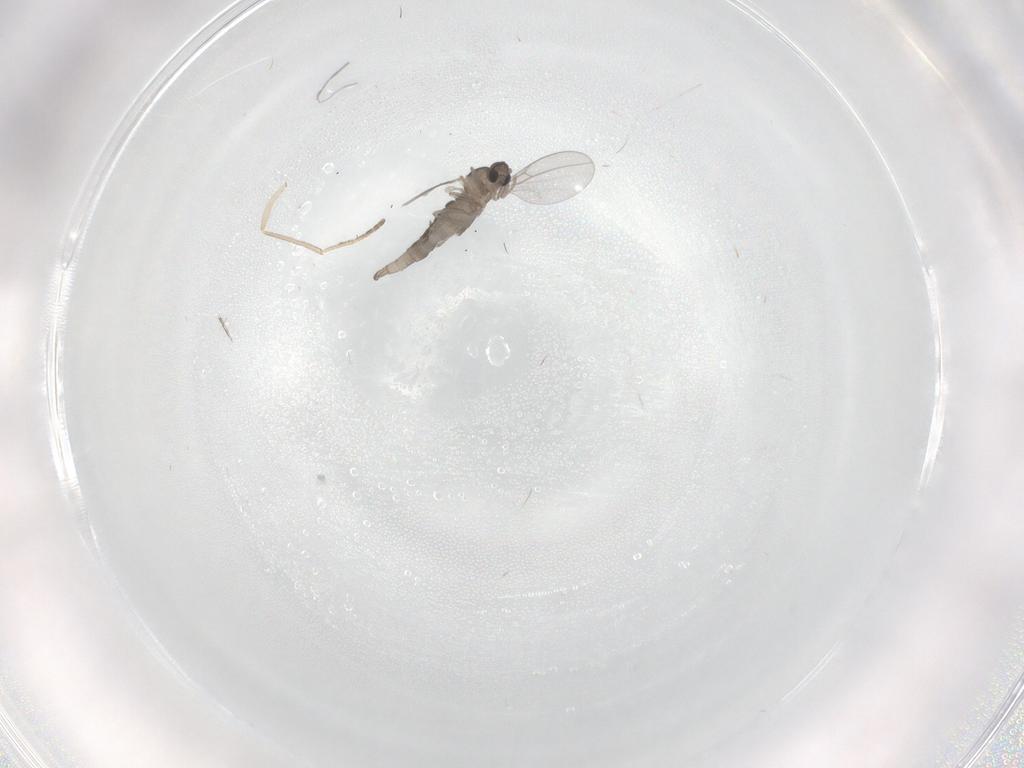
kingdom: Animalia
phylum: Arthropoda
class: Insecta
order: Diptera
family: Cecidomyiidae
